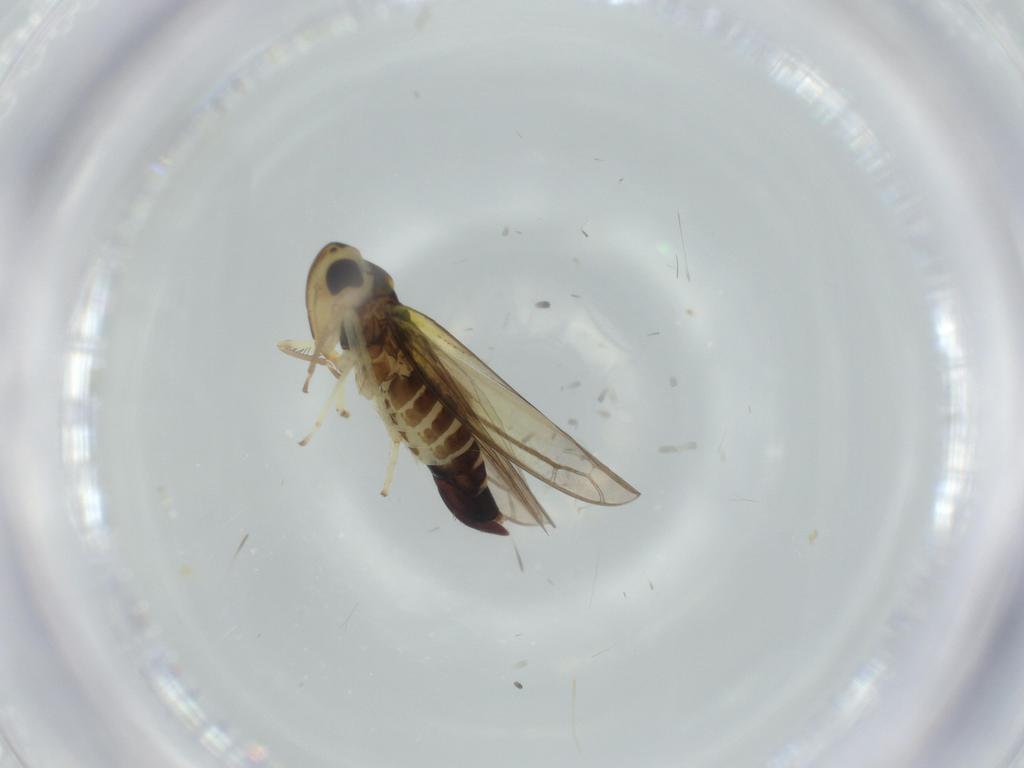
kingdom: Animalia
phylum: Arthropoda
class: Insecta
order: Hemiptera
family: Cicadellidae
